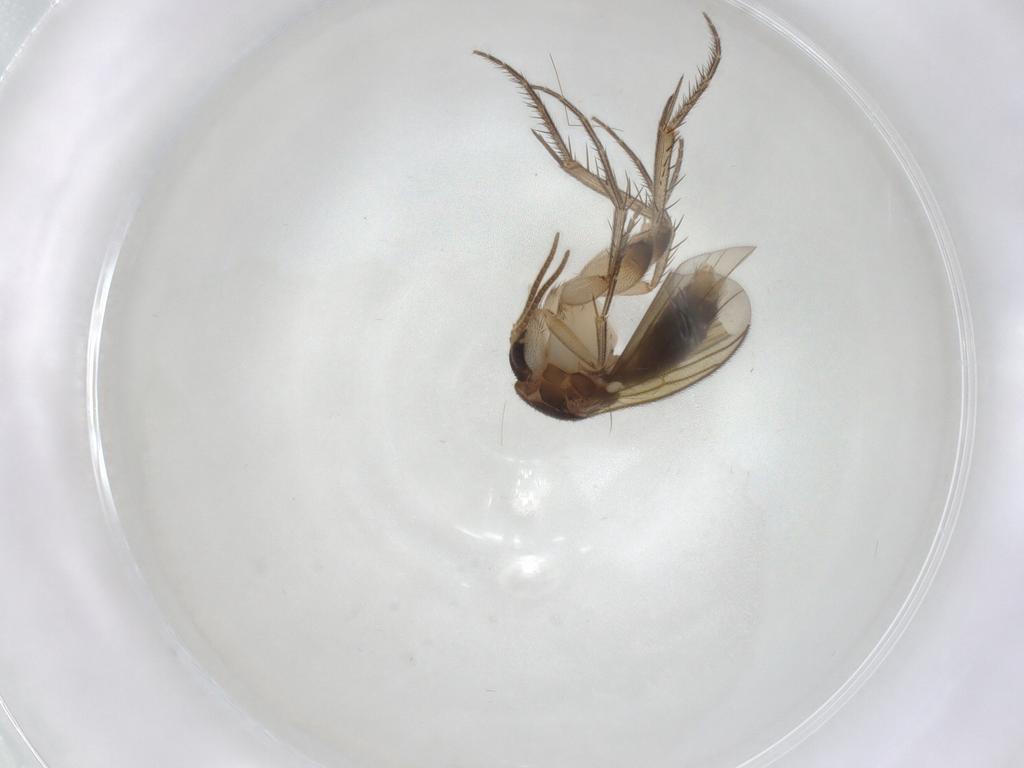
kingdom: Animalia
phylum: Arthropoda
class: Insecta
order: Diptera
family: Mycetophilidae
